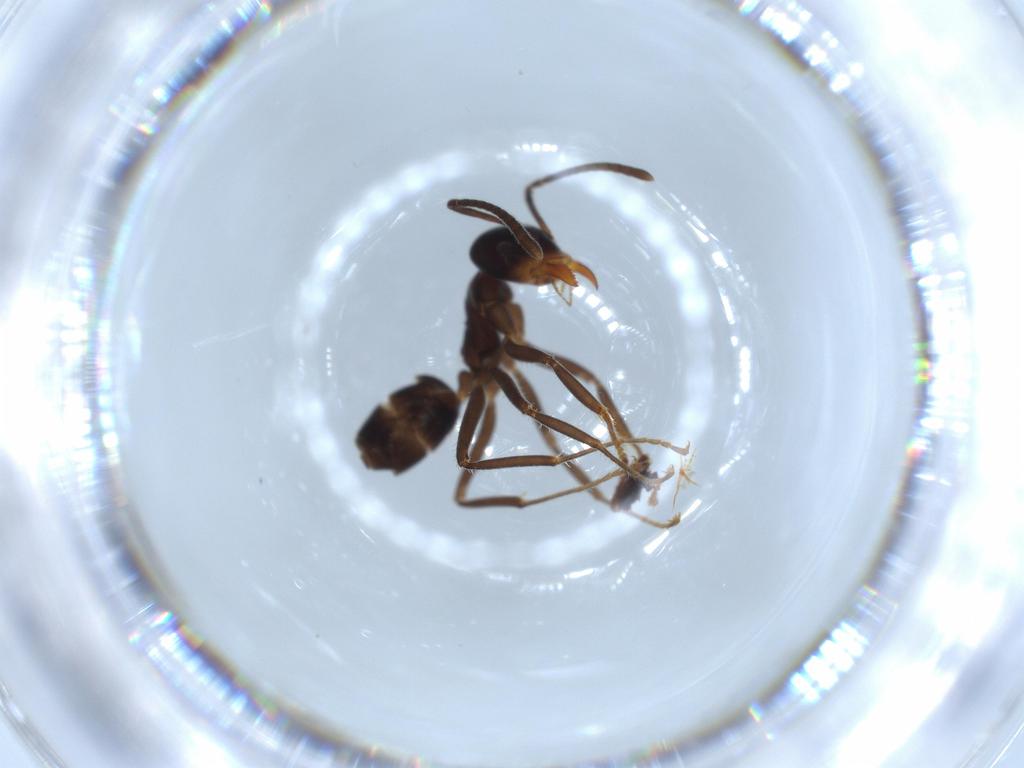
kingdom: Animalia
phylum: Arthropoda
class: Insecta
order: Hymenoptera
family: Formicidae
